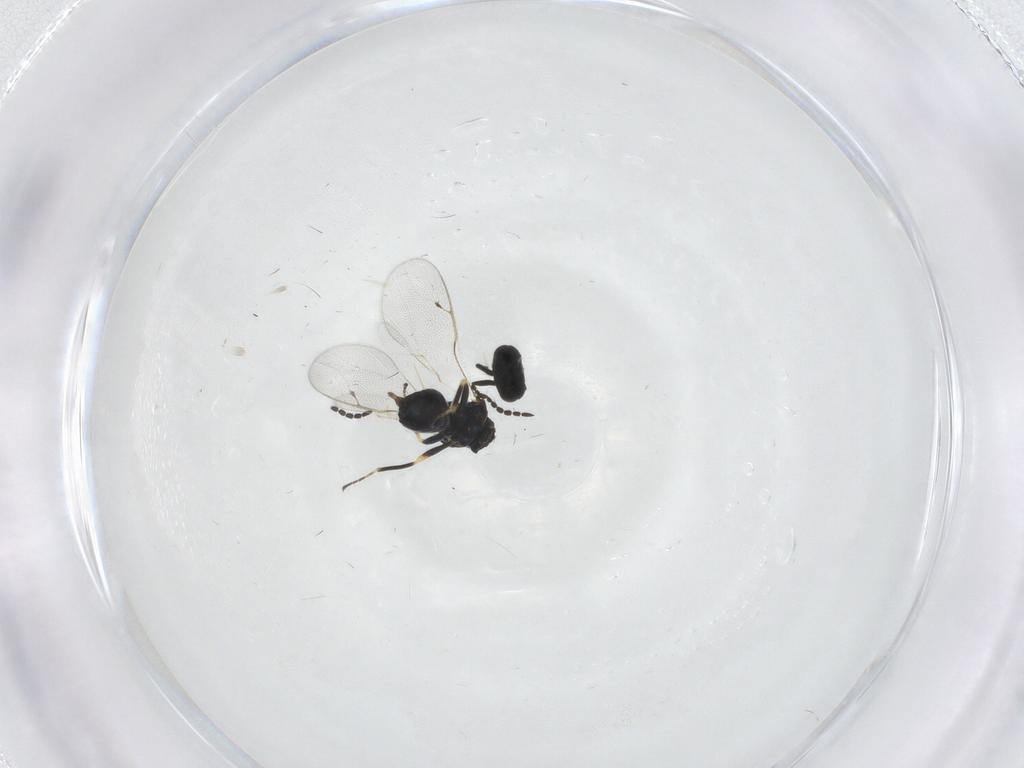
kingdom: Animalia
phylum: Arthropoda
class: Insecta
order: Hymenoptera
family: Pteromalidae
